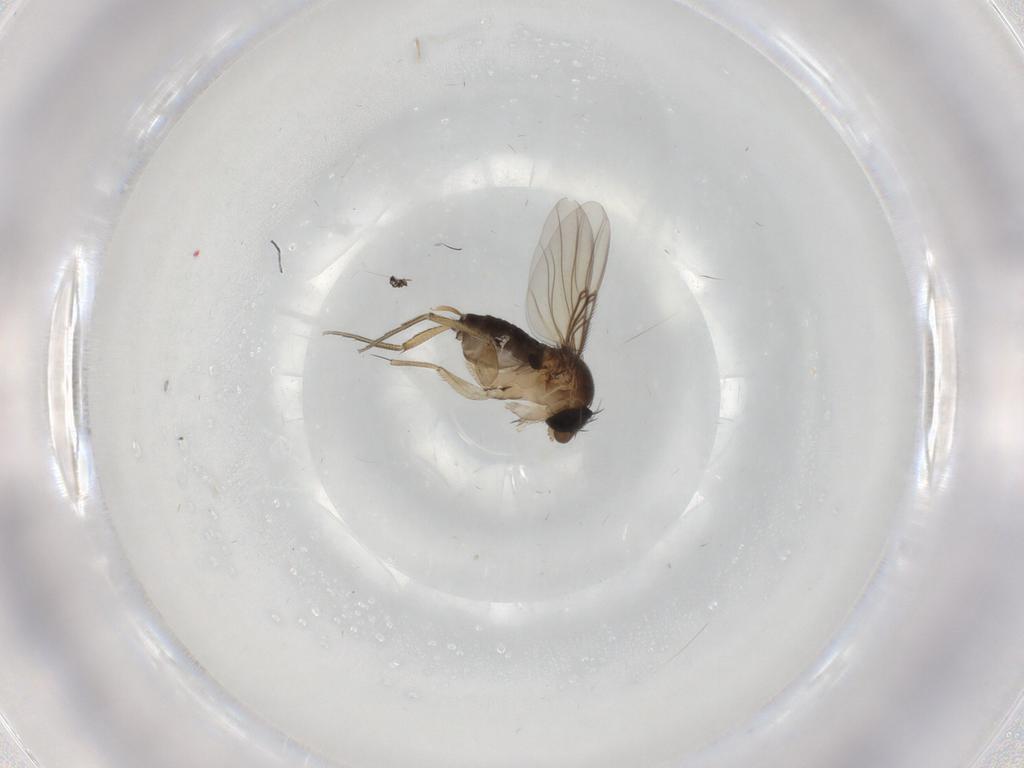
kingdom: Animalia
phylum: Arthropoda
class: Insecta
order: Diptera
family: Phoridae
